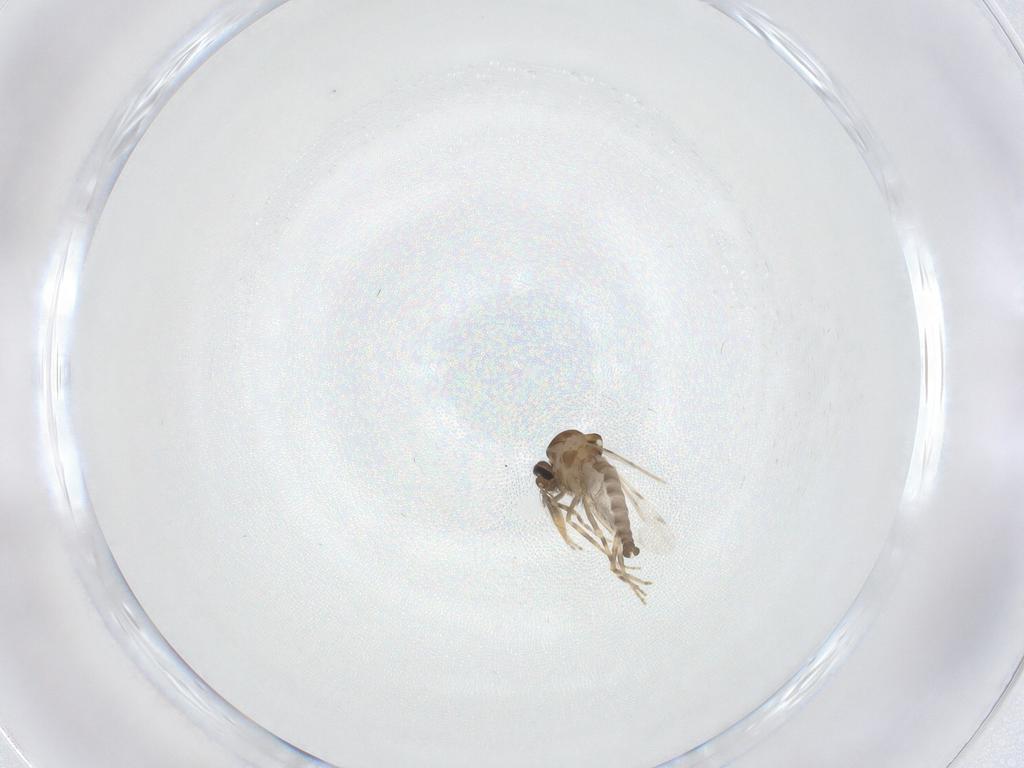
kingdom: Animalia
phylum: Arthropoda
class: Insecta
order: Diptera
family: Ceratopogonidae
